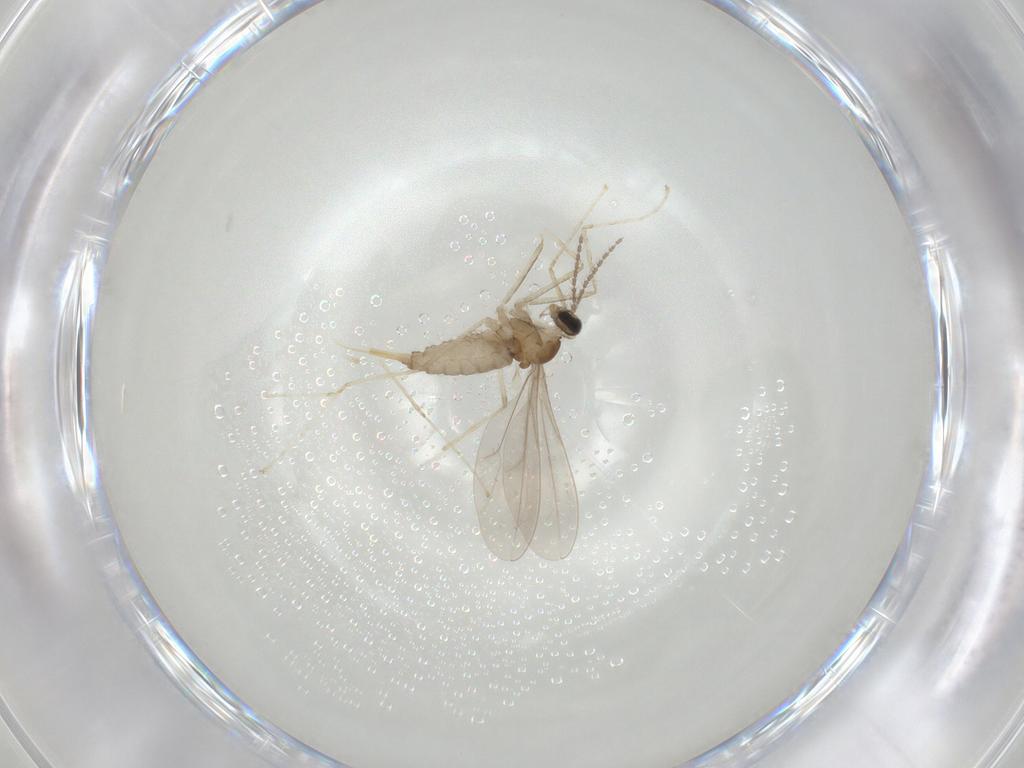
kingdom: Animalia
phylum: Arthropoda
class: Insecta
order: Diptera
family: Cecidomyiidae
